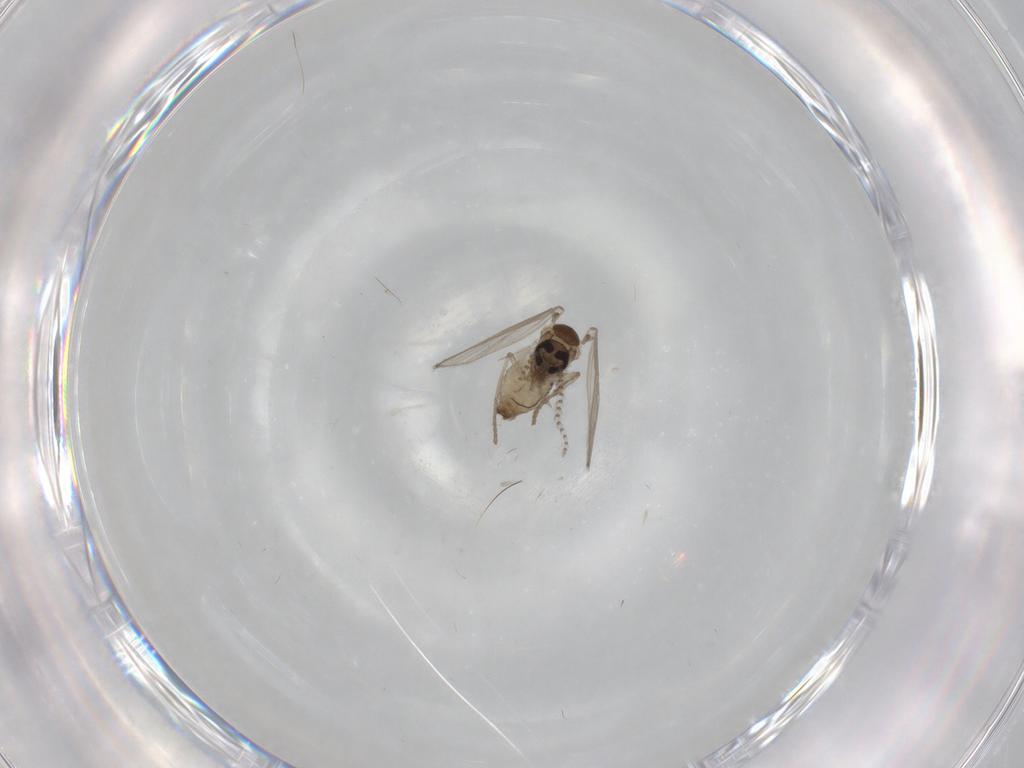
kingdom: Animalia
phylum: Arthropoda
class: Insecta
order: Diptera
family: Psychodidae
